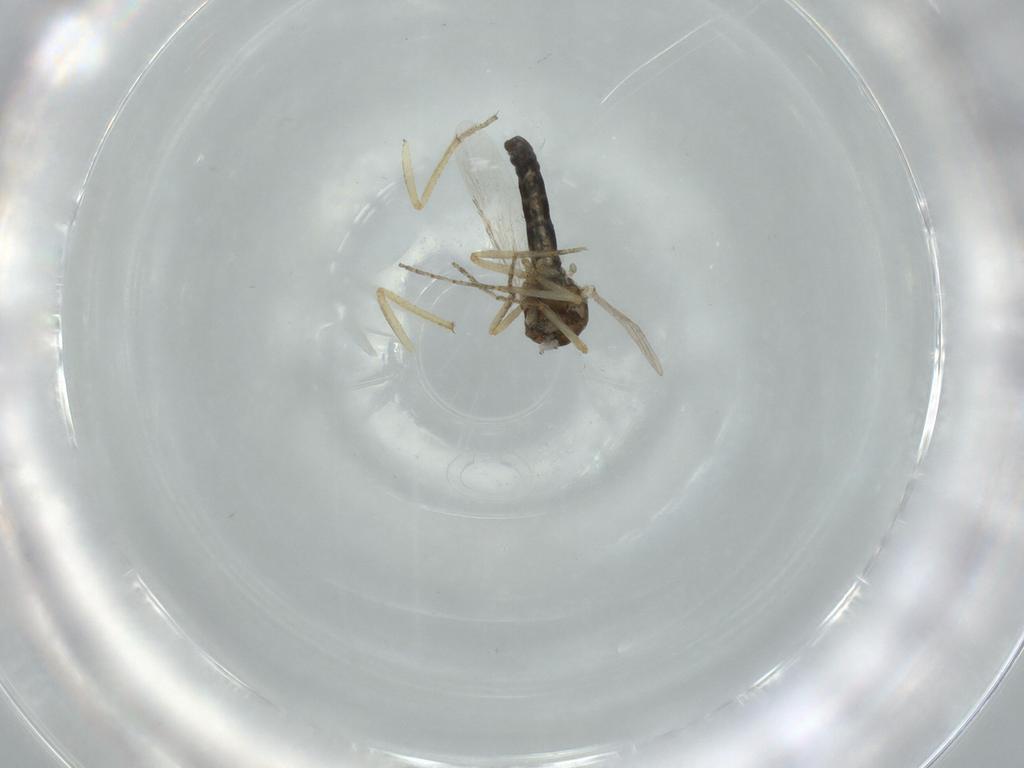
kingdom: Animalia
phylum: Arthropoda
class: Insecta
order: Diptera
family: Ceratopogonidae
